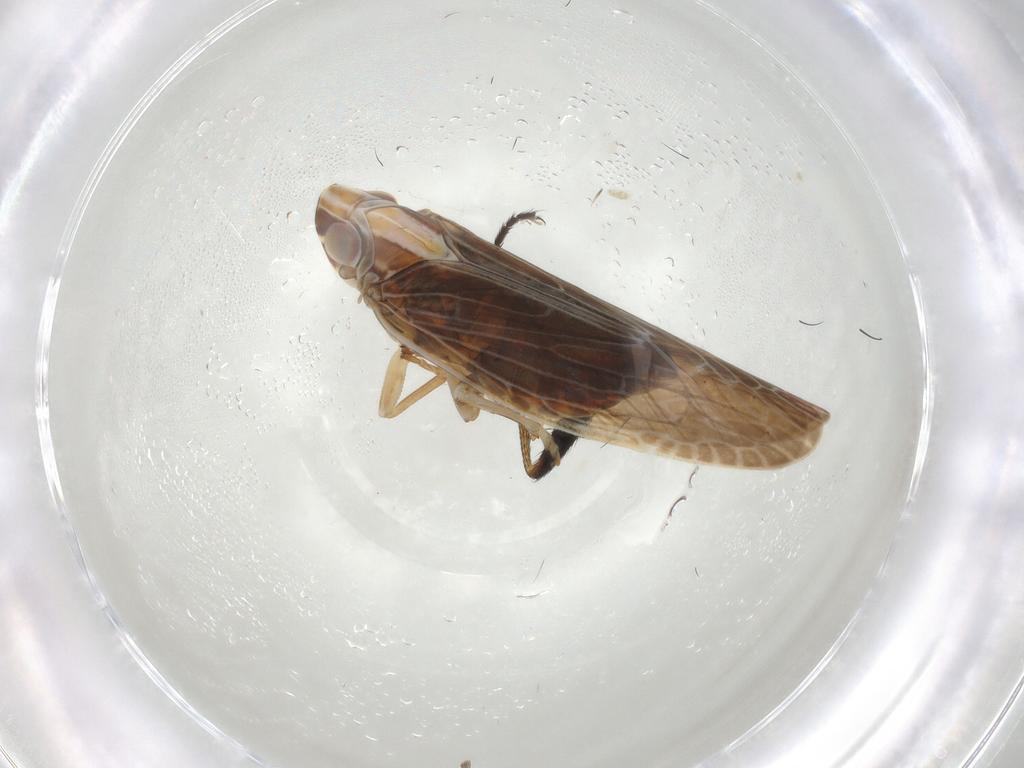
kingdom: Animalia
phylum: Arthropoda
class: Insecta
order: Hemiptera
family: Achilidae
